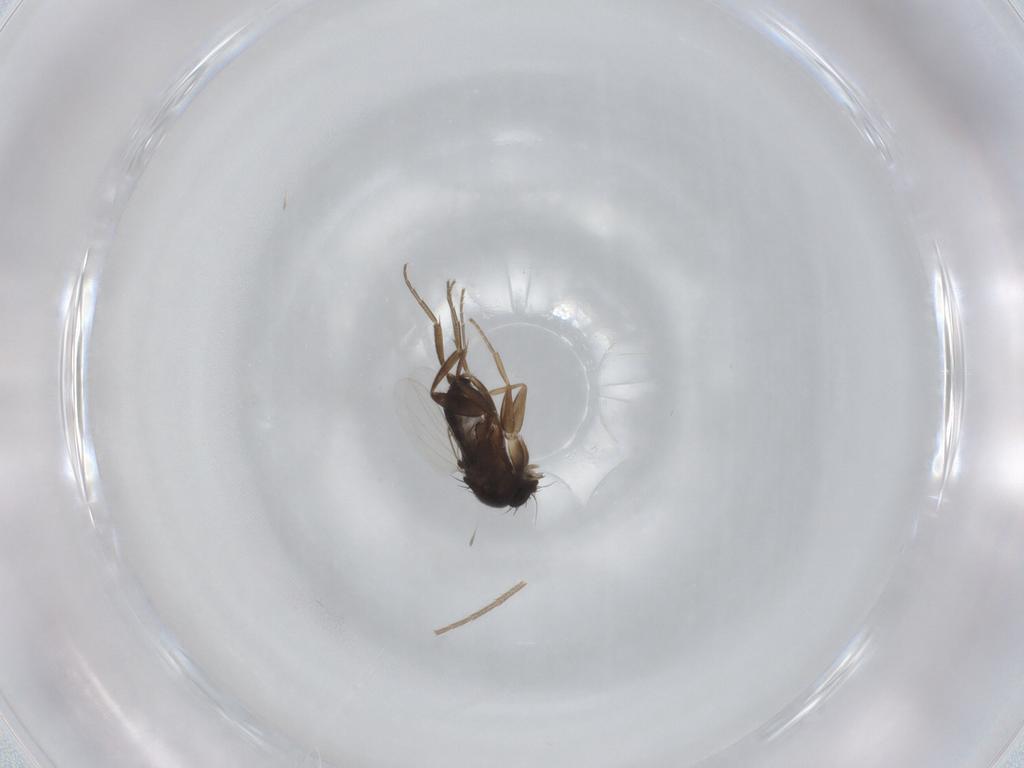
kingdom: Animalia
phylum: Arthropoda
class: Insecta
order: Diptera
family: Phoridae
